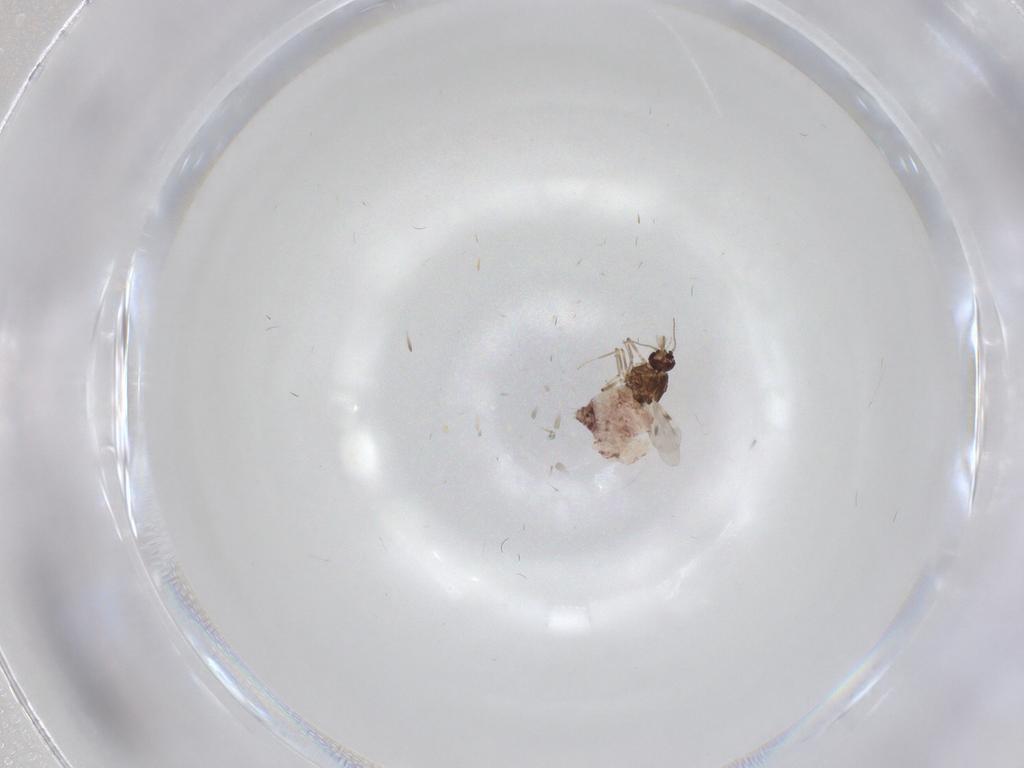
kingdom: Animalia
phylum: Arthropoda
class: Insecta
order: Diptera
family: Cecidomyiidae
